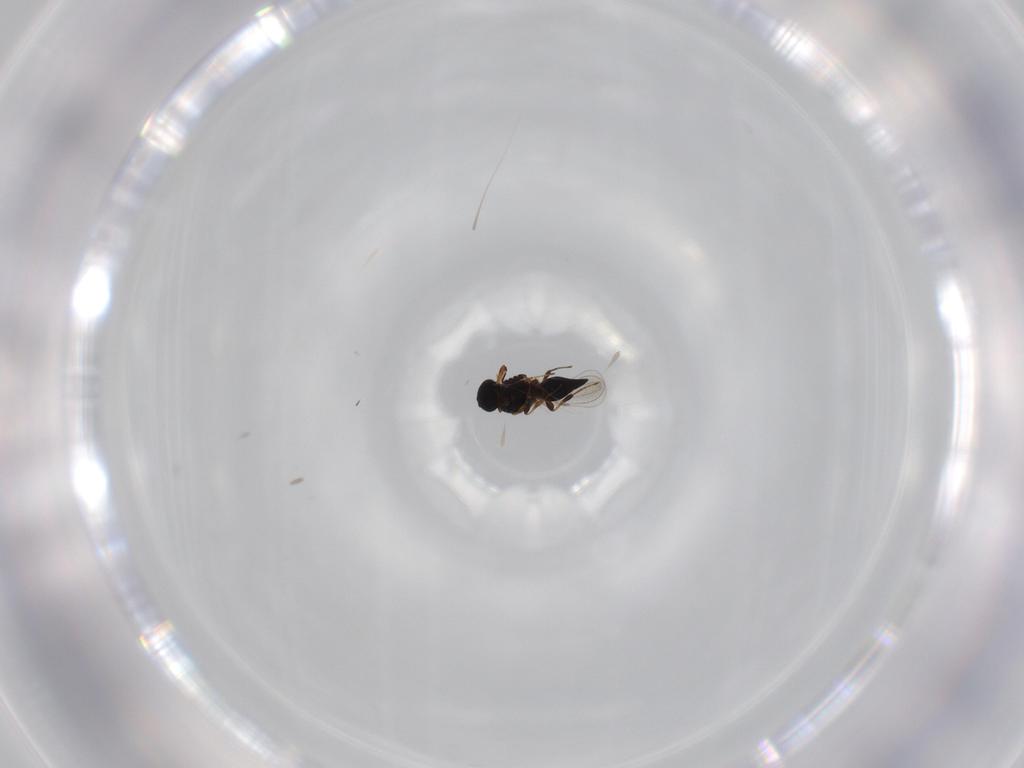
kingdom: Animalia
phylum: Arthropoda
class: Insecta
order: Hymenoptera
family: Platygastridae
